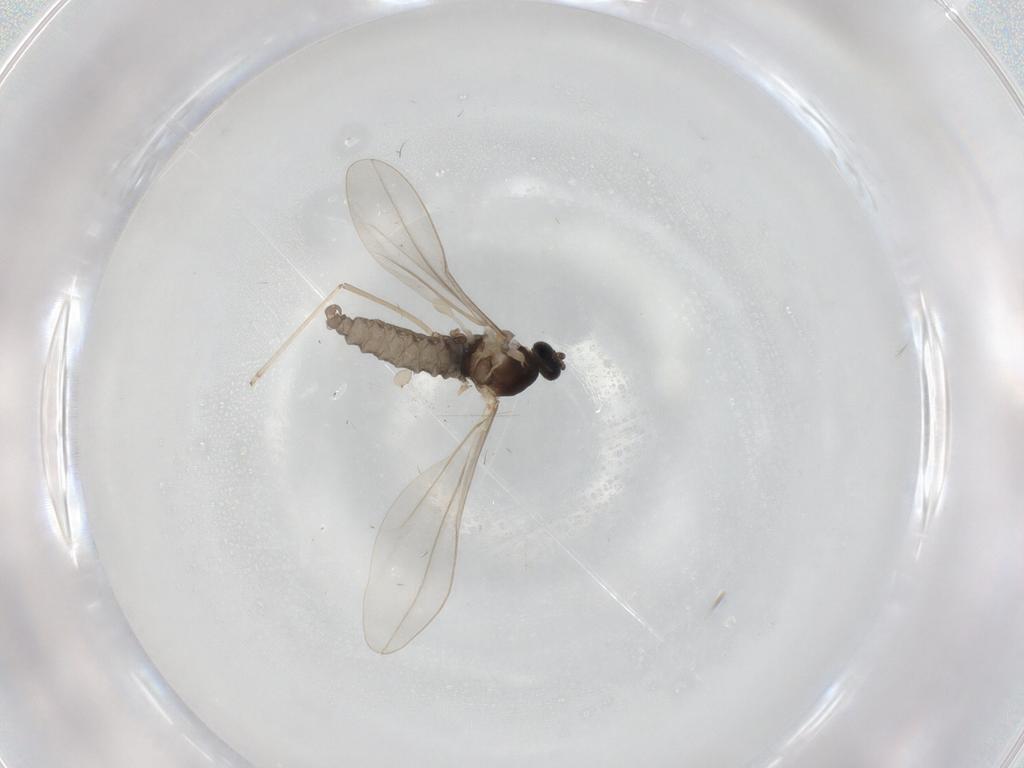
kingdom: Animalia
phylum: Arthropoda
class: Insecta
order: Diptera
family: Cecidomyiidae
